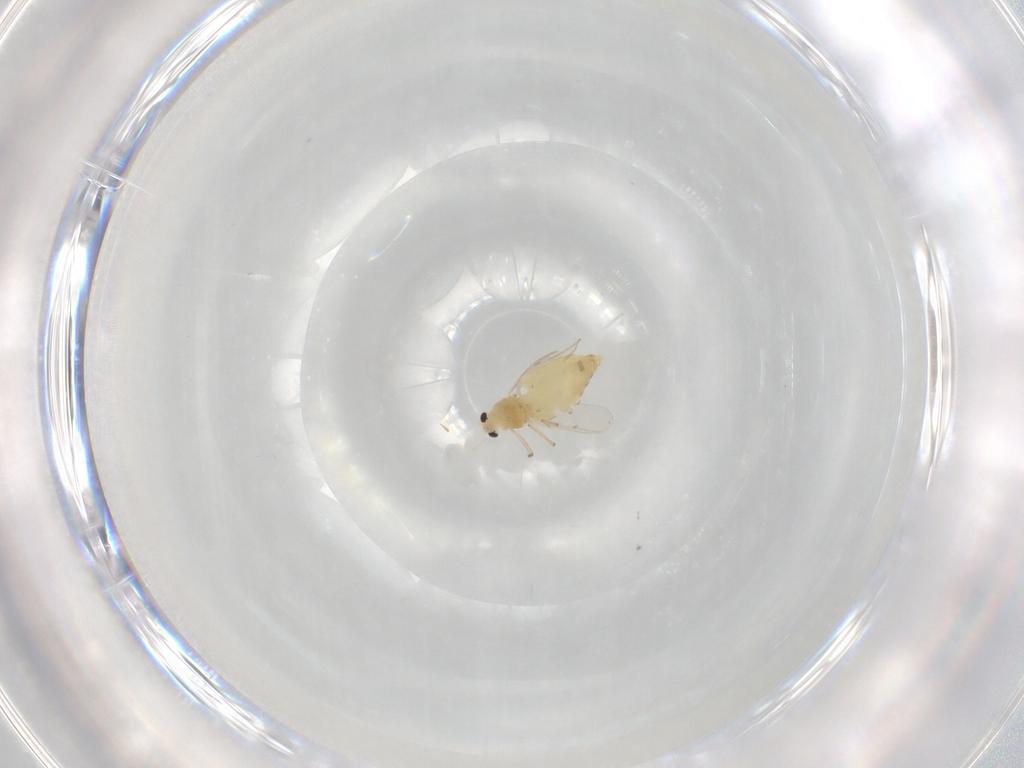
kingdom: Animalia
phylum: Arthropoda
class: Insecta
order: Diptera
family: Chironomidae
